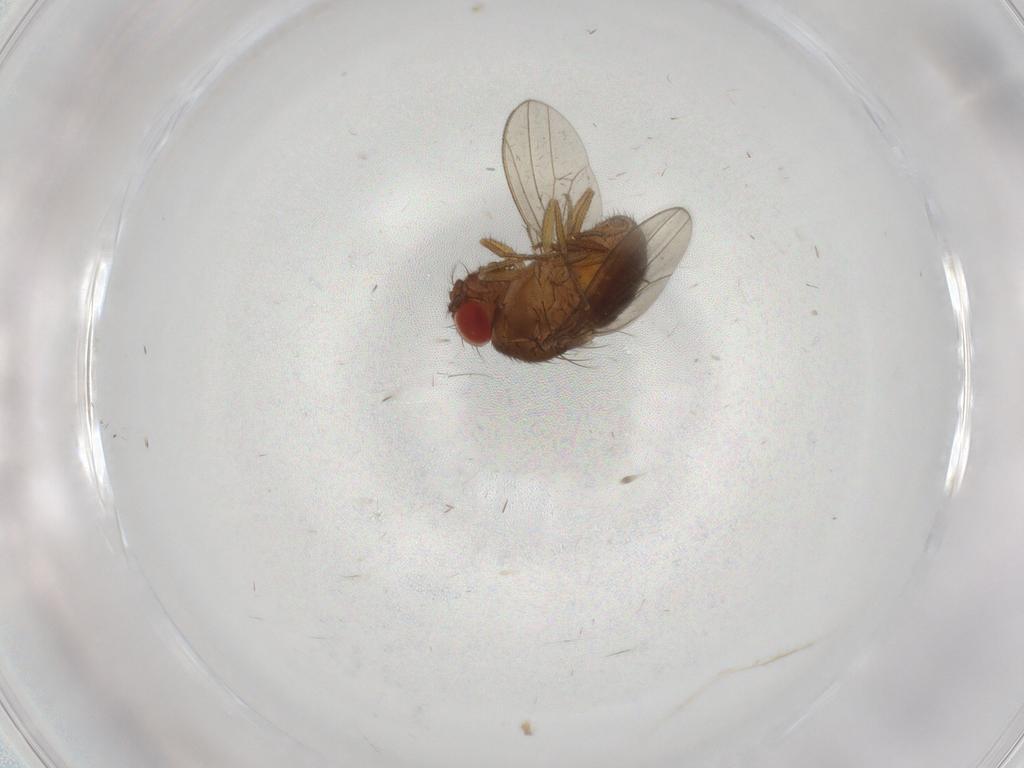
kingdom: Animalia
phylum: Arthropoda
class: Insecta
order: Diptera
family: Drosophilidae
